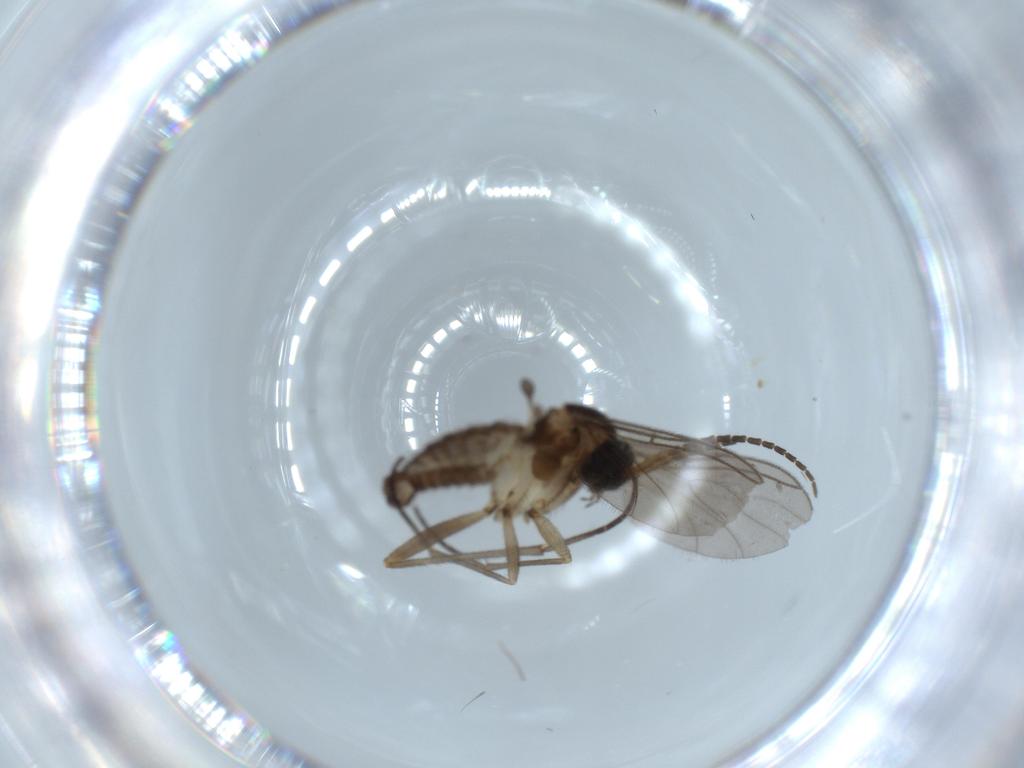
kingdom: Animalia
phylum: Arthropoda
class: Insecta
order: Diptera
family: Sciaridae
